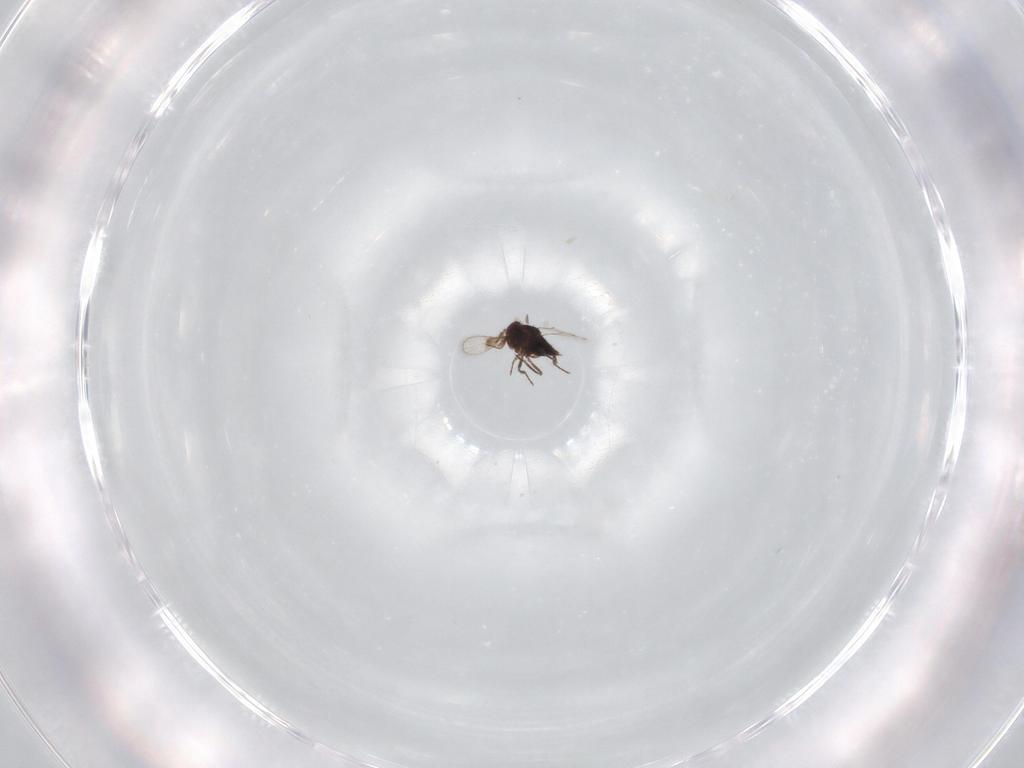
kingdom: Animalia
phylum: Arthropoda
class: Insecta
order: Hymenoptera
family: Trichogrammatidae
